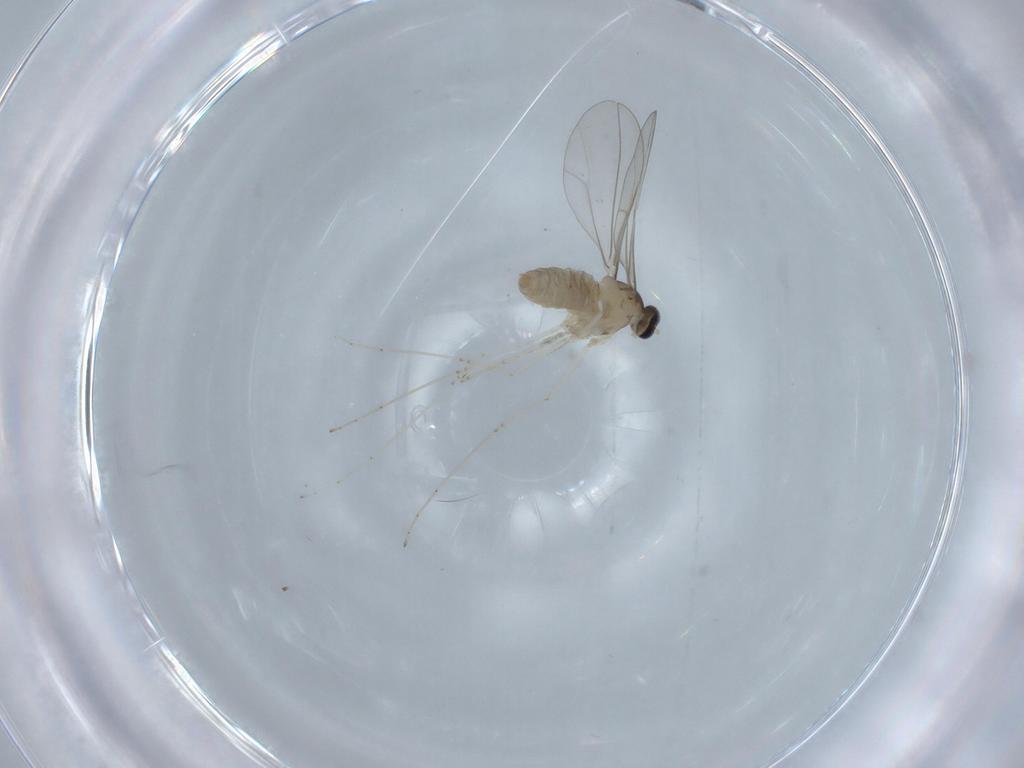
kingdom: Animalia
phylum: Arthropoda
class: Insecta
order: Diptera
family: Cecidomyiidae
